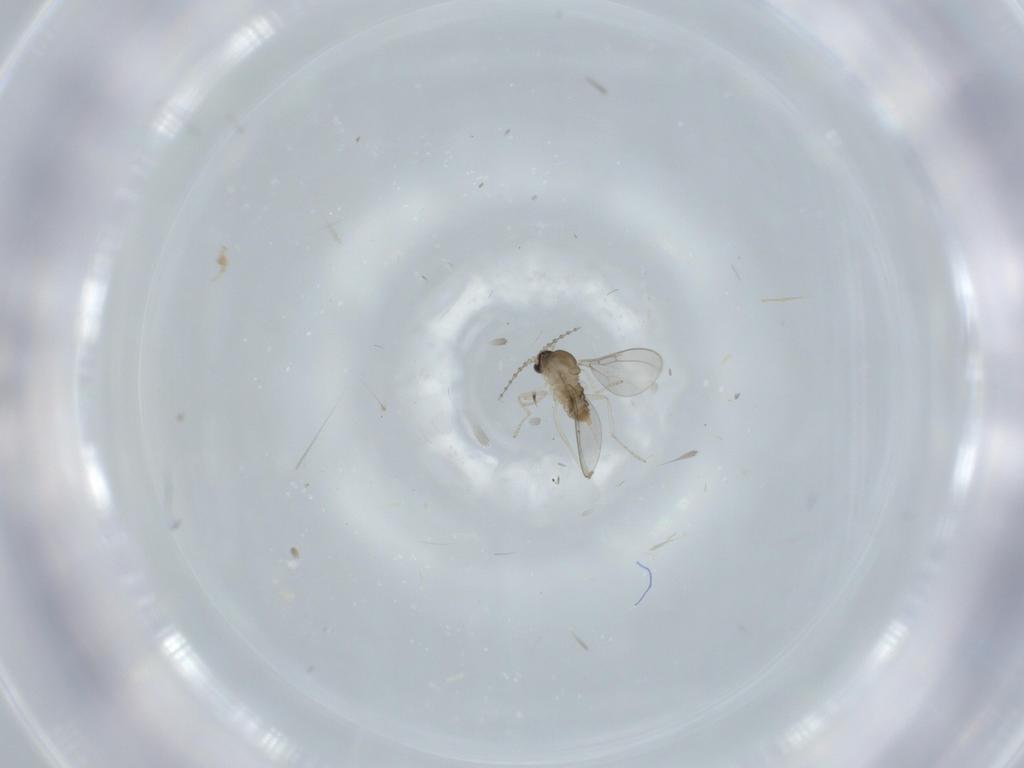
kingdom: Animalia
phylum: Arthropoda
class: Insecta
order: Diptera
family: Cecidomyiidae
